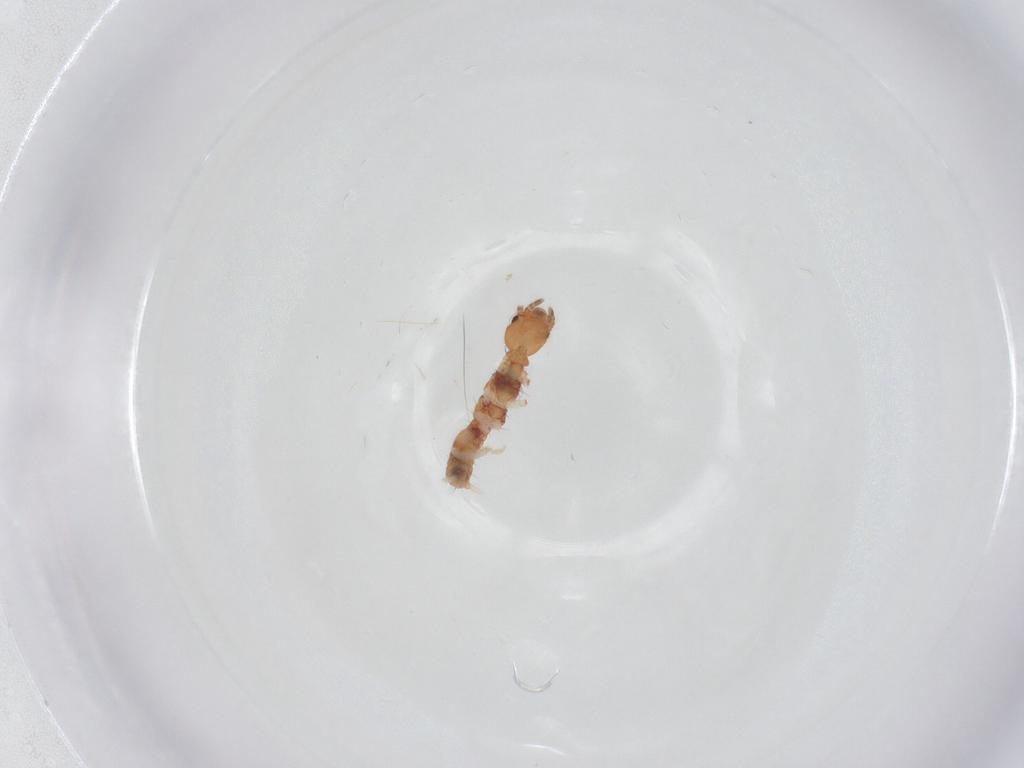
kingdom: Animalia
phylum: Arthropoda
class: Insecta
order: Embioptera
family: Anisembiidae
